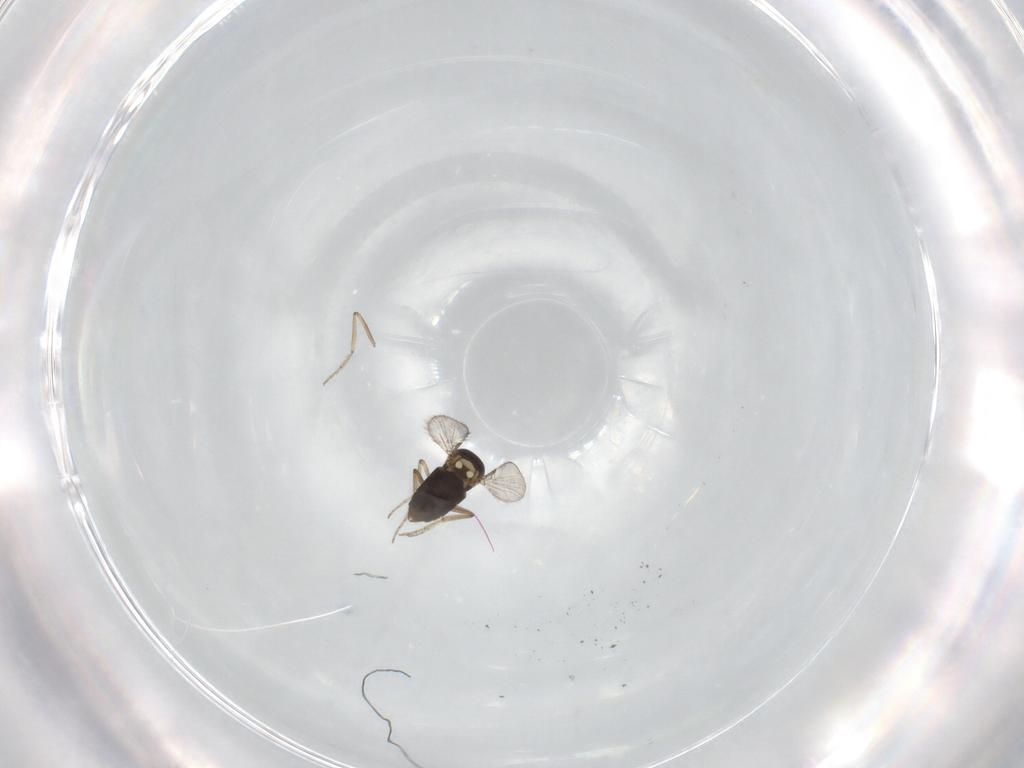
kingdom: Animalia
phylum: Arthropoda
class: Insecta
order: Diptera
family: Ceratopogonidae
